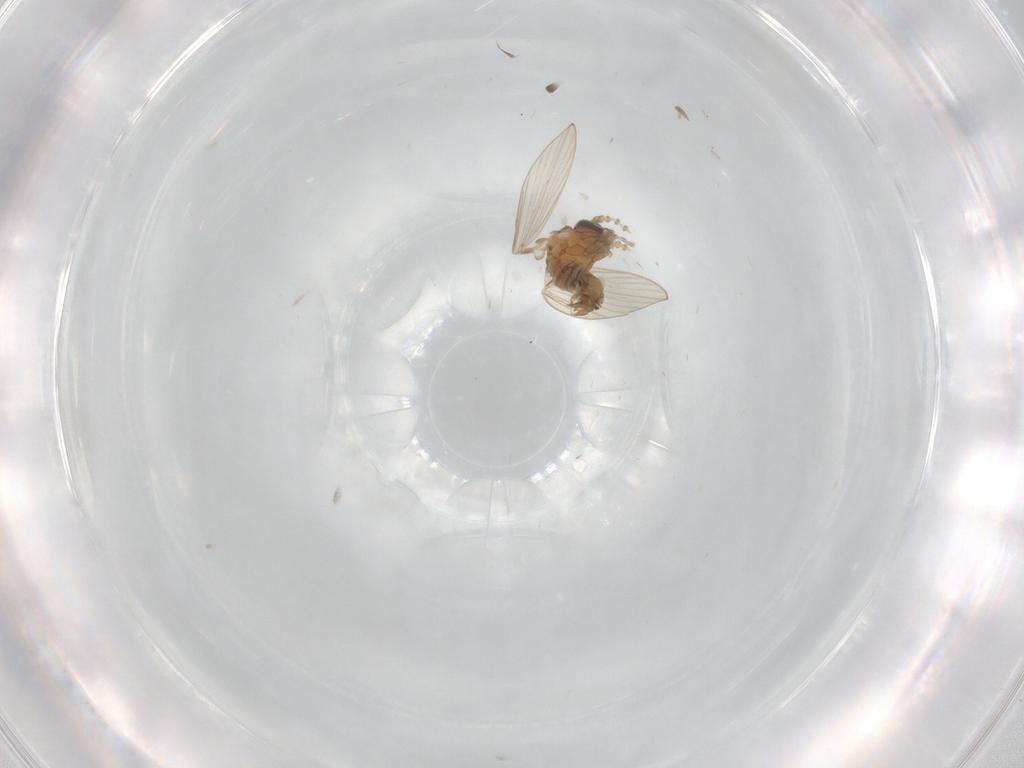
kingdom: Animalia
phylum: Arthropoda
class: Insecta
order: Diptera
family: Psychodidae
